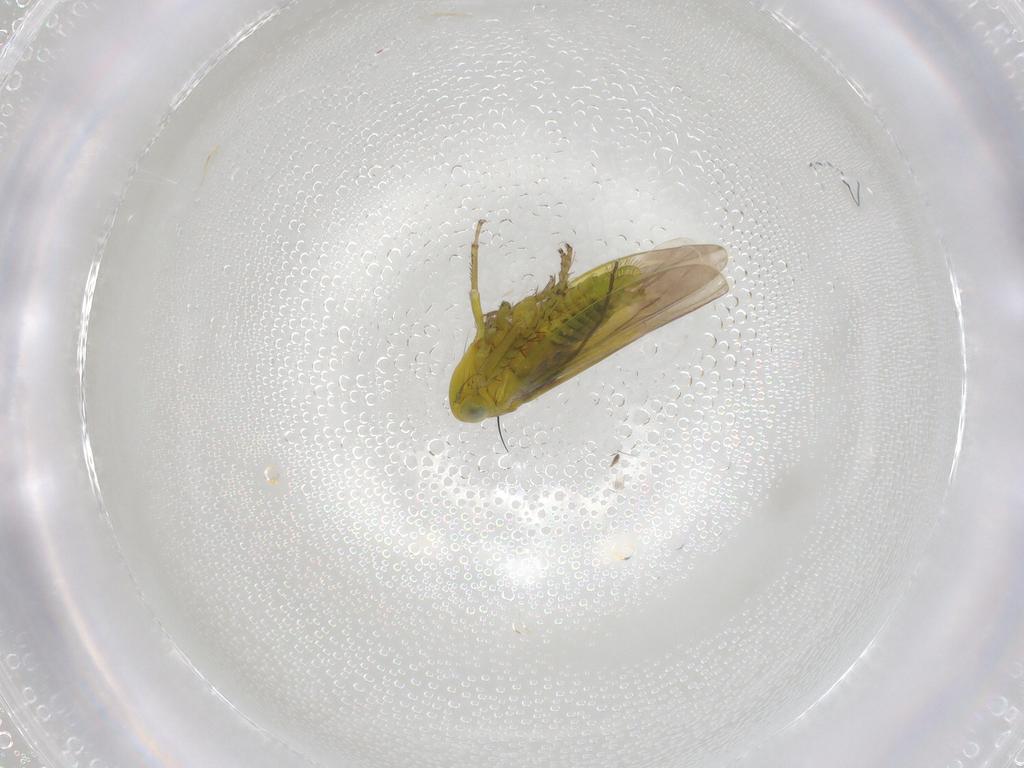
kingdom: Animalia
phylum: Arthropoda
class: Insecta
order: Hemiptera
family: Cicadellidae
